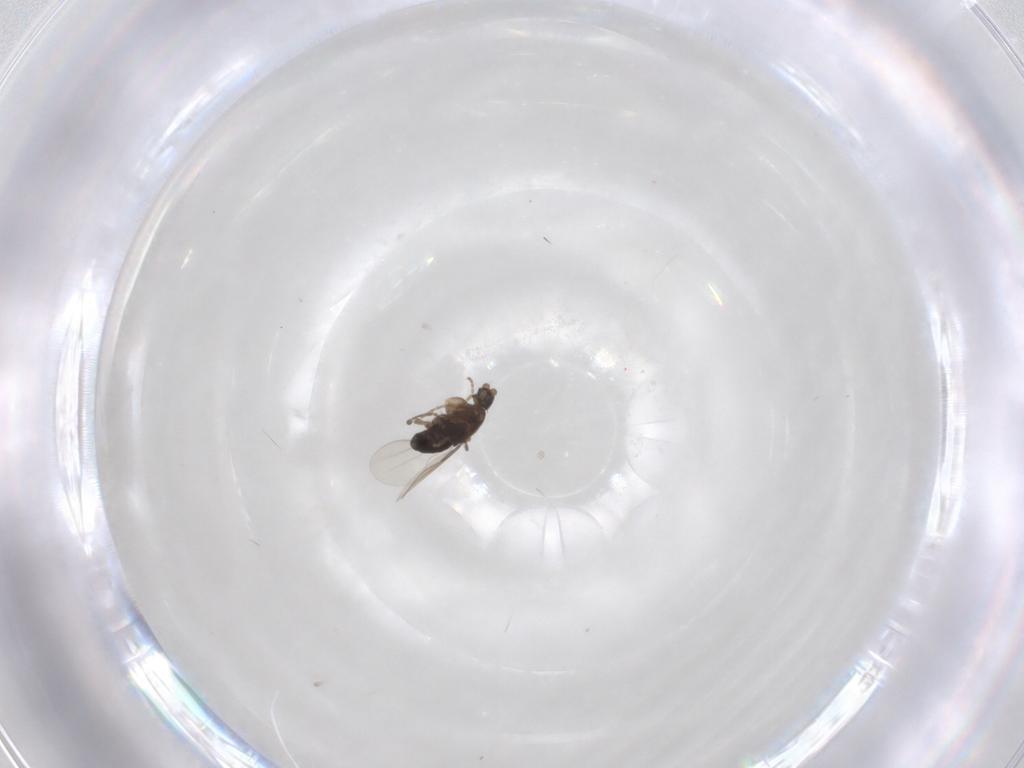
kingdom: Animalia
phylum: Arthropoda
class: Insecta
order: Diptera
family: Phoridae
